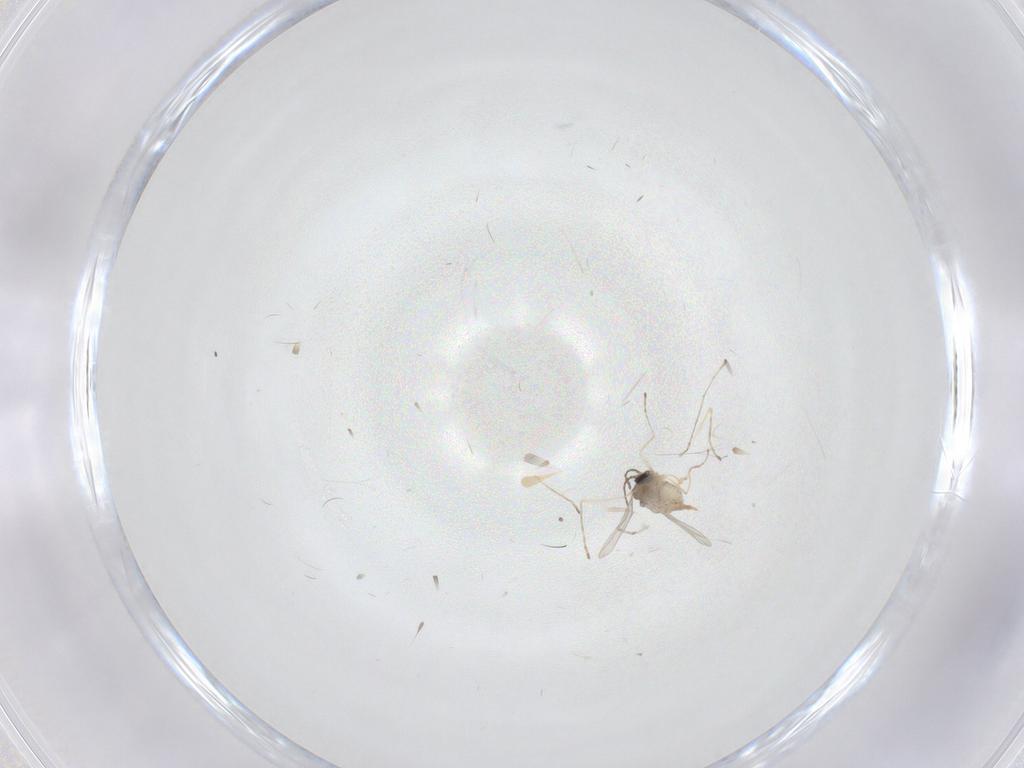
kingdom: Animalia
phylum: Arthropoda
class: Insecta
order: Diptera
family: Cecidomyiidae
